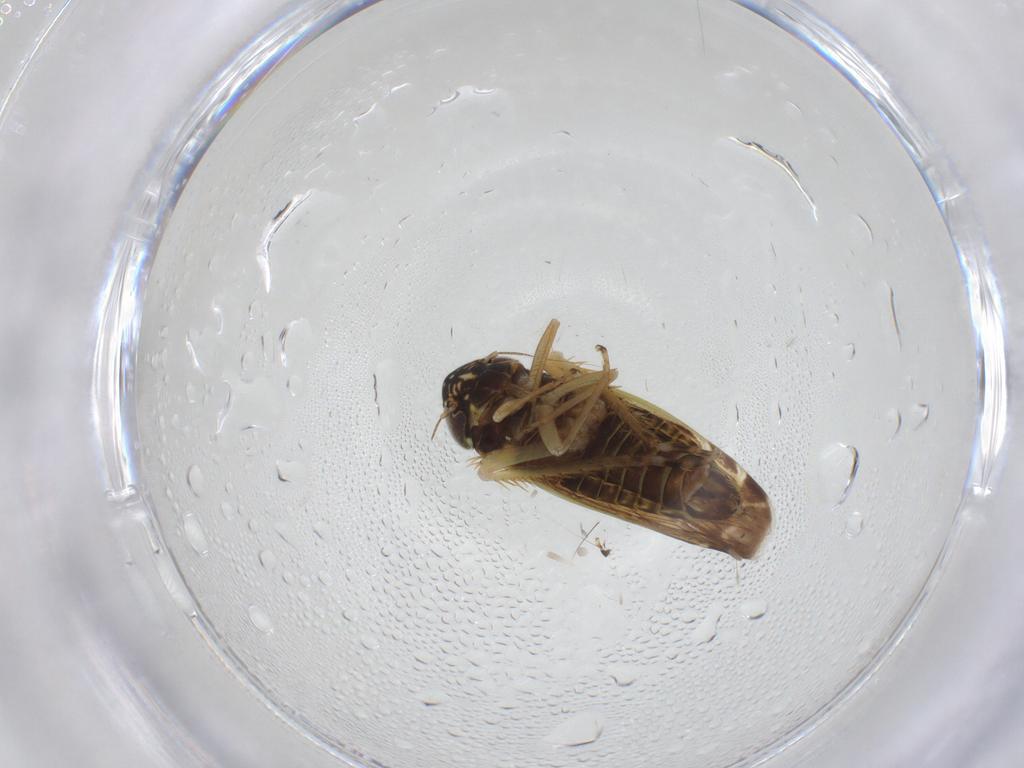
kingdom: Animalia
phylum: Arthropoda
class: Insecta
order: Hemiptera
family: Cicadellidae
